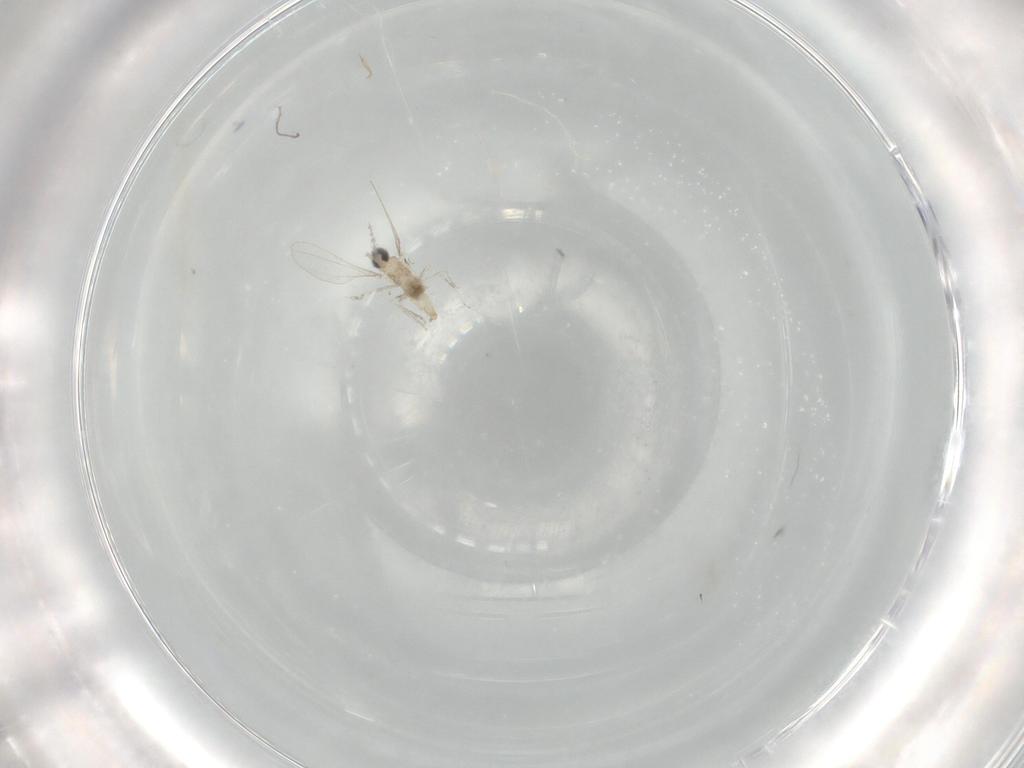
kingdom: Animalia
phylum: Arthropoda
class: Insecta
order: Diptera
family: Cecidomyiidae
